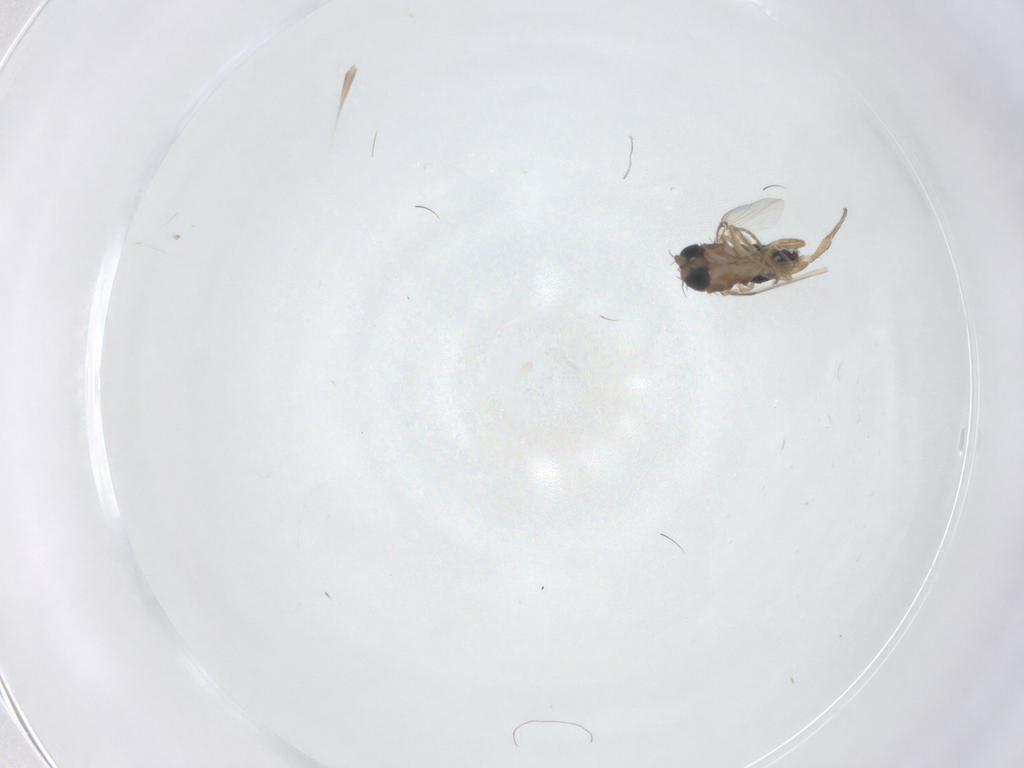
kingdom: Animalia
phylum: Arthropoda
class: Insecta
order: Diptera
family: Phoridae
